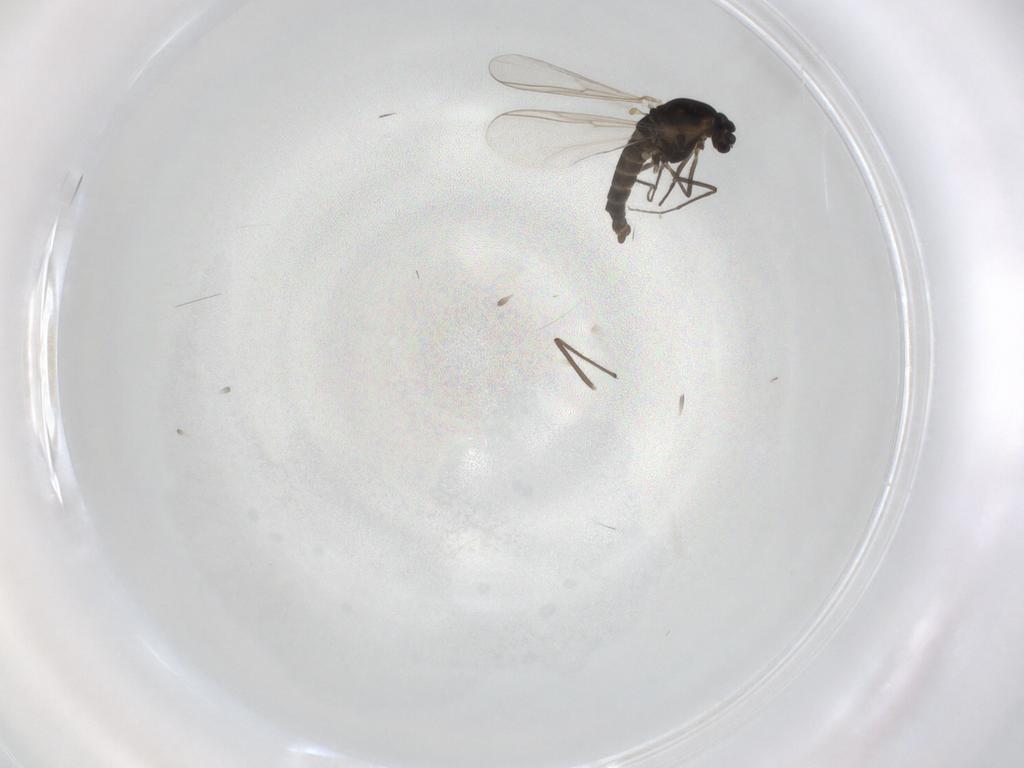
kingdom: Animalia
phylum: Arthropoda
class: Insecta
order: Diptera
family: Chironomidae
